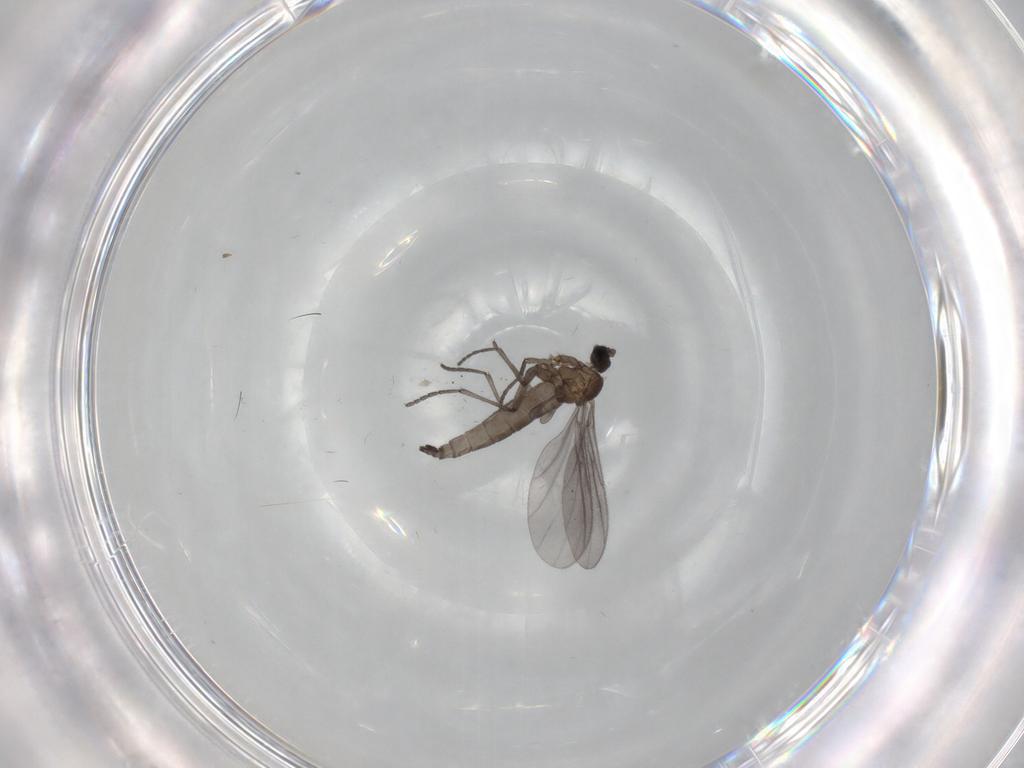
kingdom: Animalia
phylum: Arthropoda
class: Insecta
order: Diptera
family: Sciaridae
